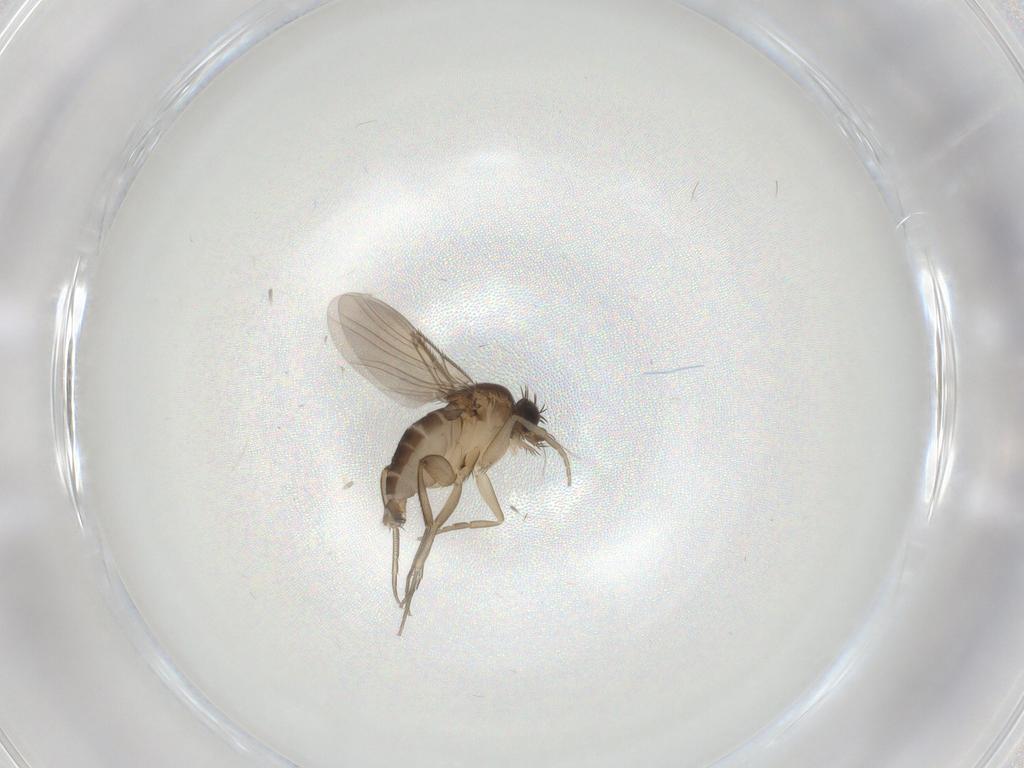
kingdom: Animalia
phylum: Arthropoda
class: Insecta
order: Diptera
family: Phoridae
